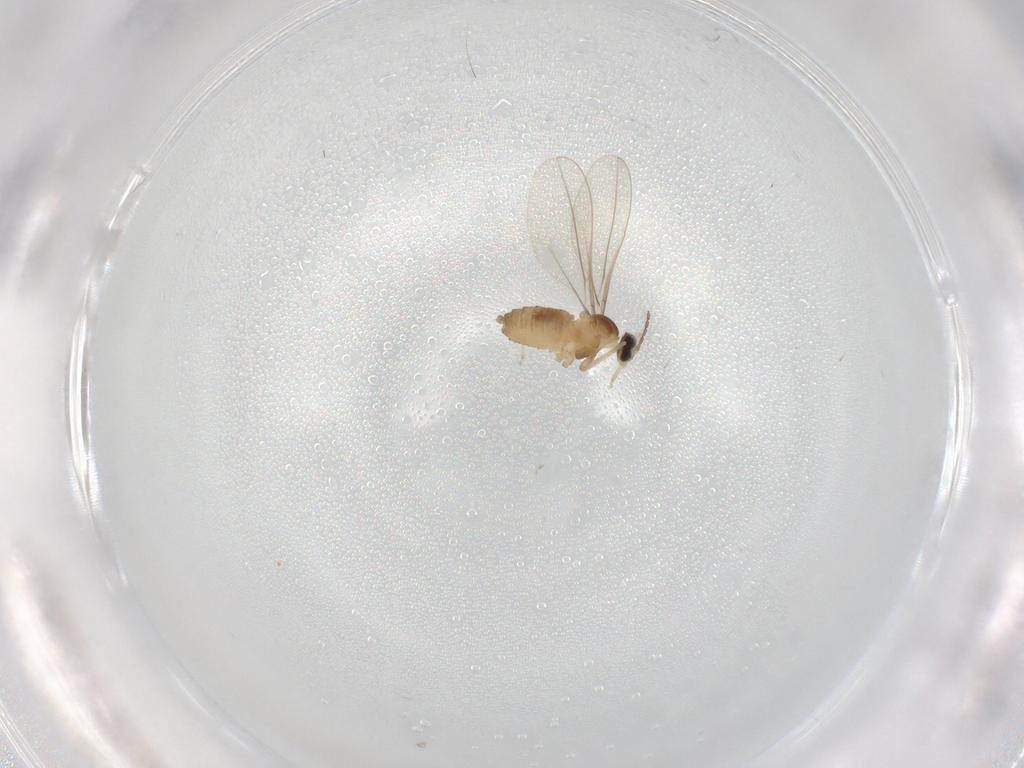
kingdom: Animalia
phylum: Arthropoda
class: Insecta
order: Diptera
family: Cecidomyiidae
